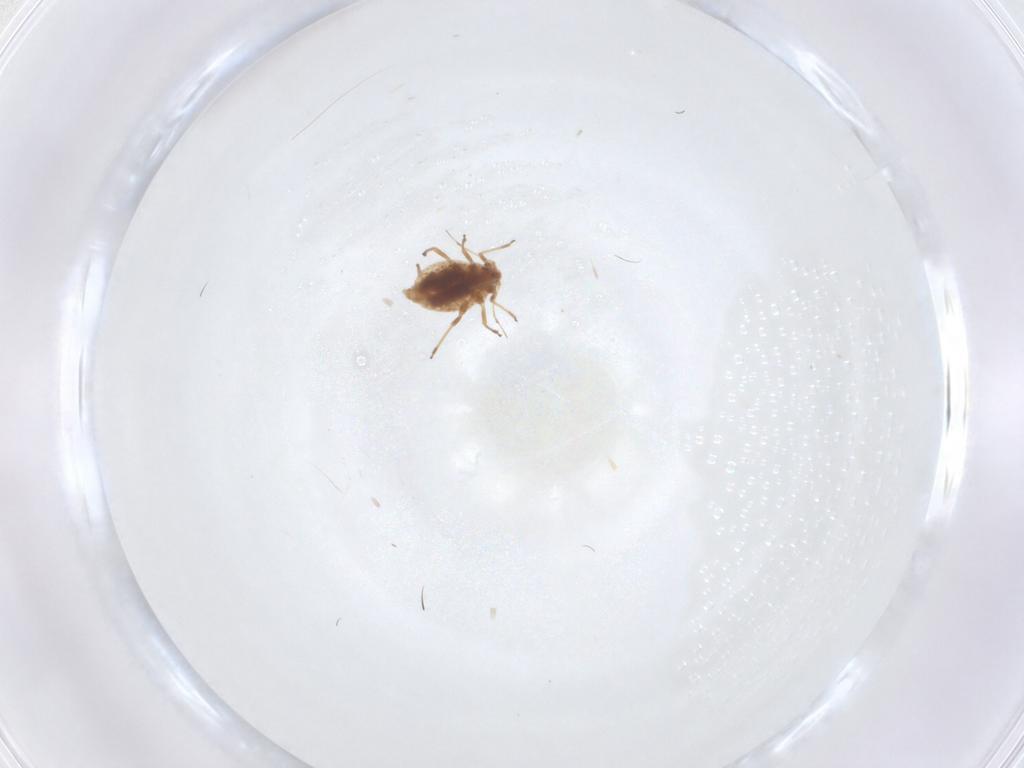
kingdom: Animalia
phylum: Arthropoda
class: Insecta
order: Hemiptera
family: Aphididae
